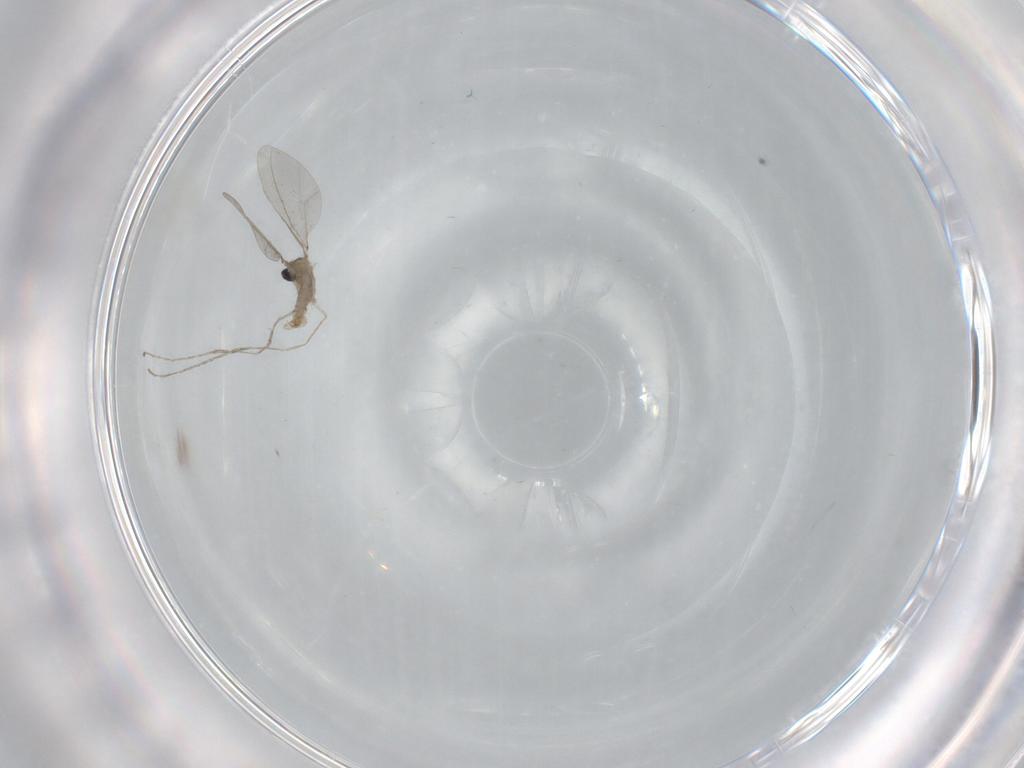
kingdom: Animalia
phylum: Arthropoda
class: Insecta
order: Diptera
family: Cecidomyiidae
